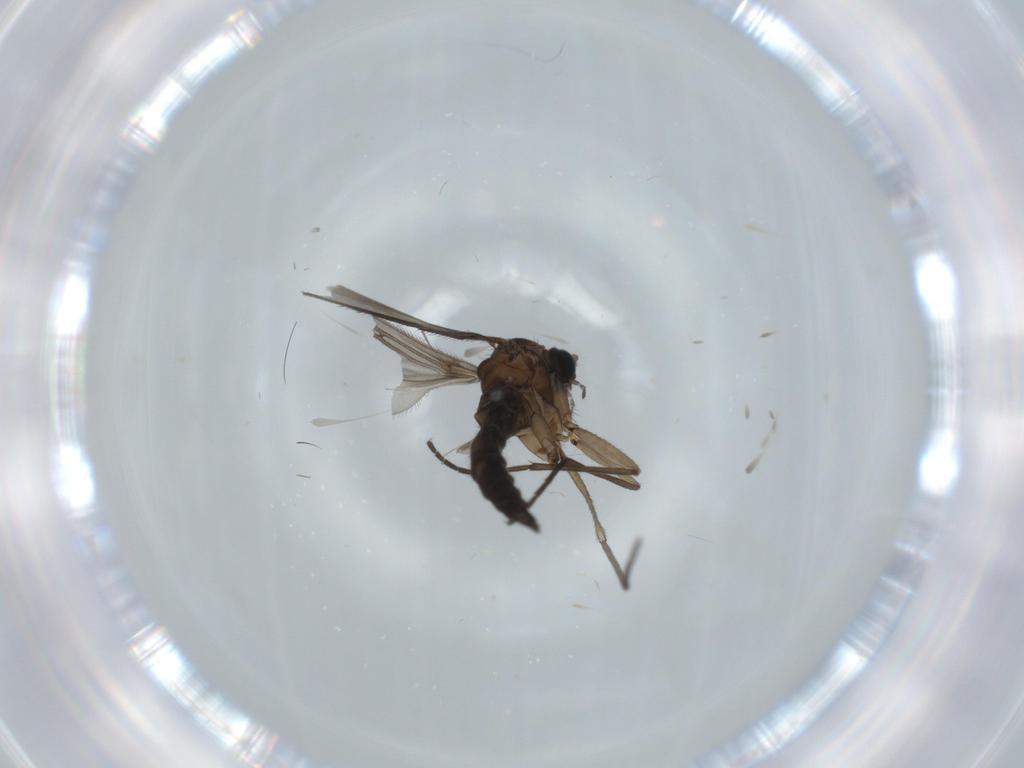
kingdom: Animalia
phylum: Arthropoda
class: Insecta
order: Diptera
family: Sciaridae
